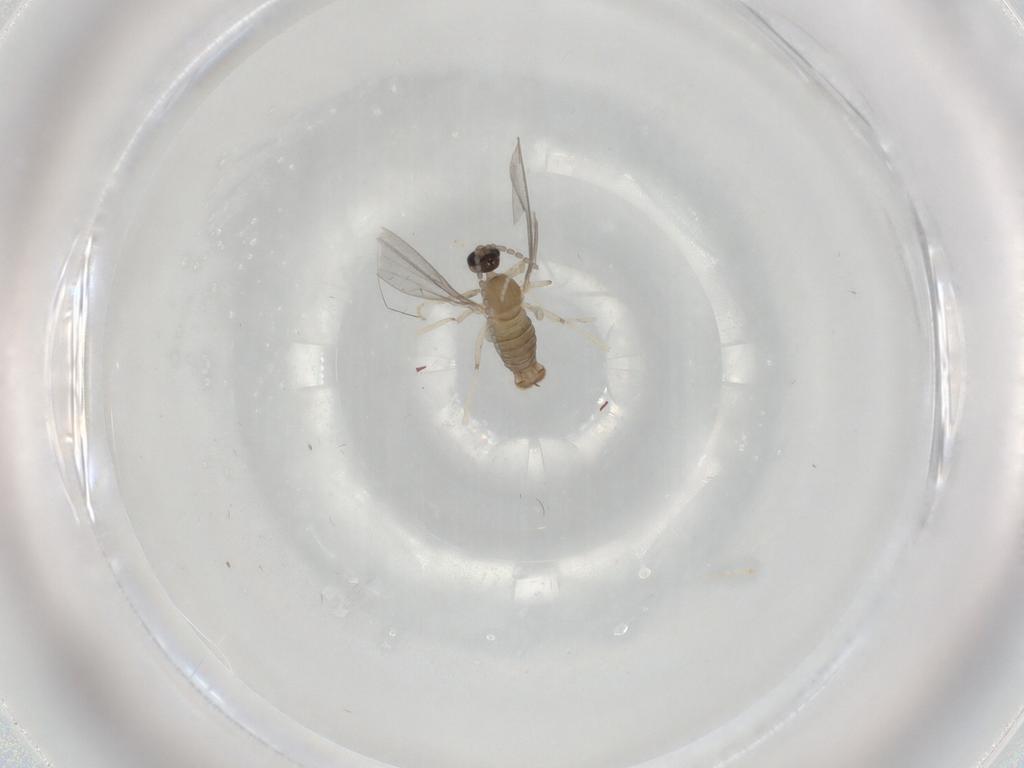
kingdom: Animalia
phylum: Arthropoda
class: Insecta
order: Diptera
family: Cecidomyiidae
